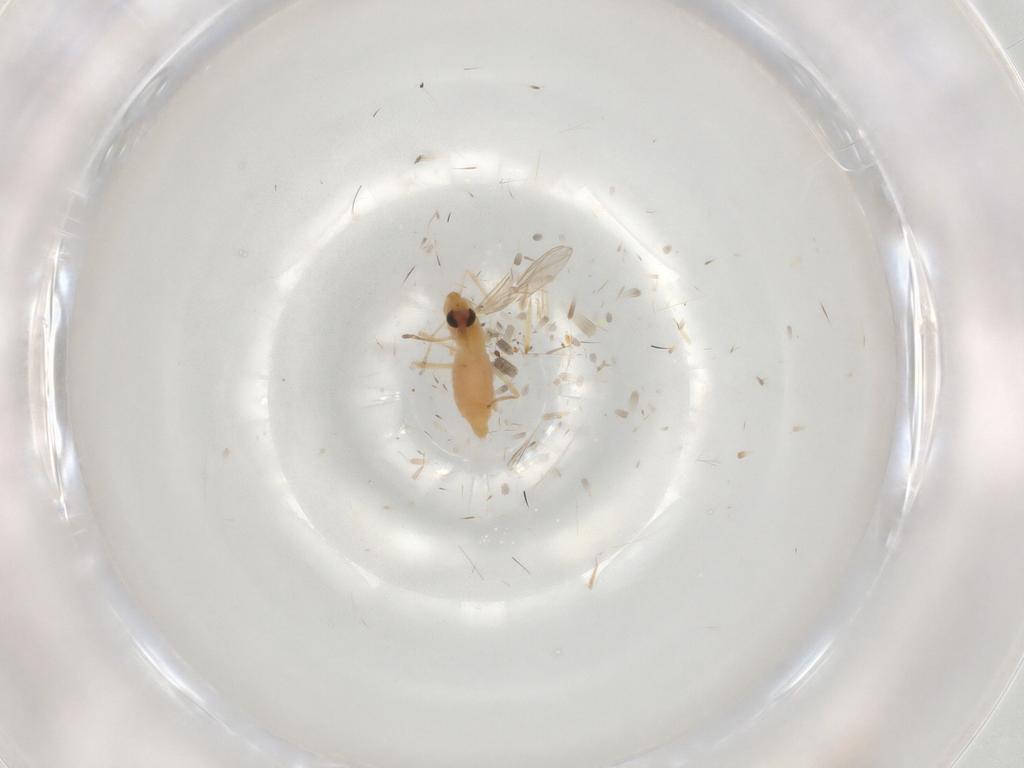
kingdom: Animalia
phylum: Arthropoda
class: Insecta
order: Diptera
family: Chironomidae
